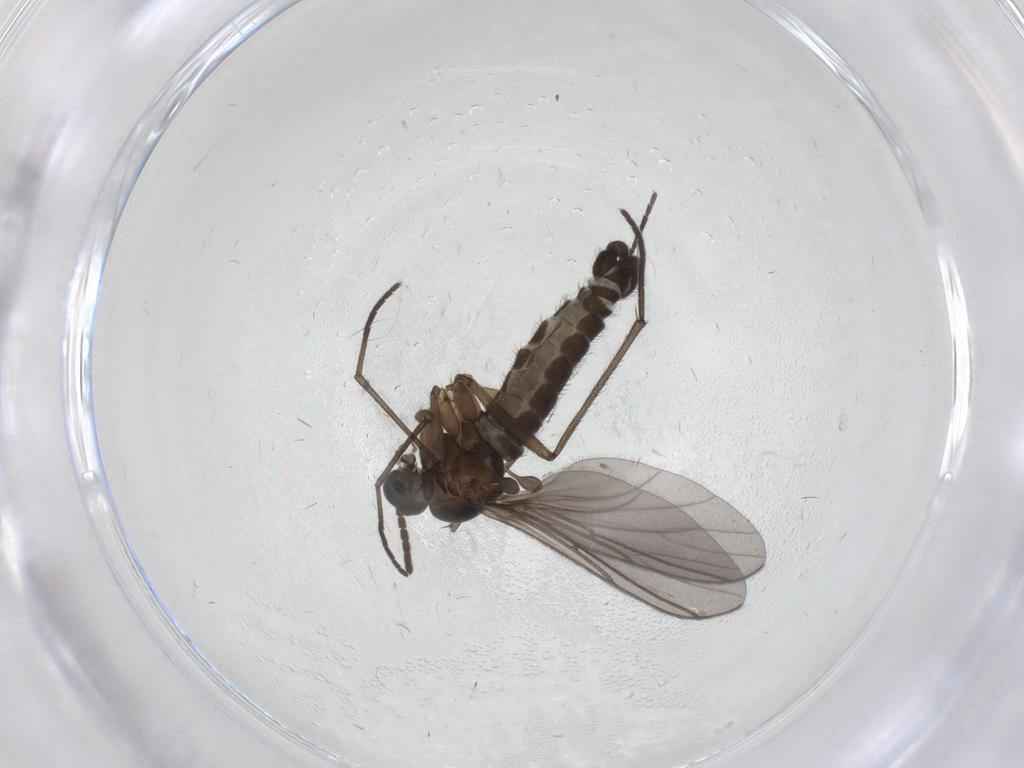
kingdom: Animalia
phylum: Arthropoda
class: Insecta
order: Diptera
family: Sciaridae
